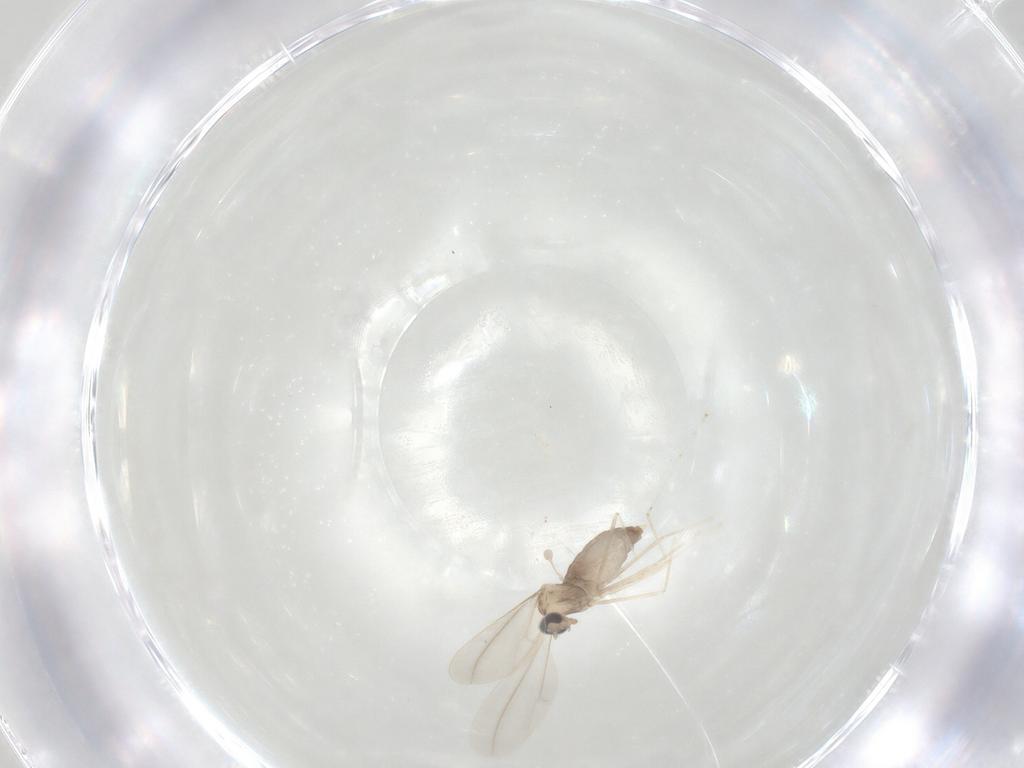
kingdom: Animalia
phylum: Arthropoda
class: Insecta
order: Diptera
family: Cecidomyiidae
